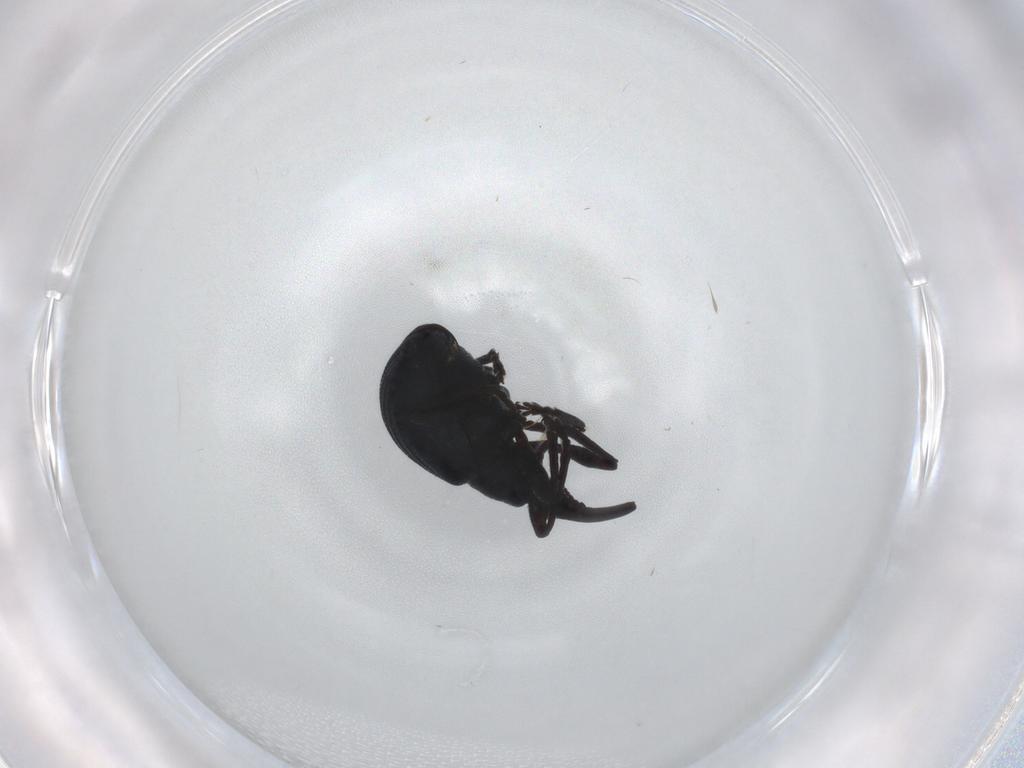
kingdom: Animalia
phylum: Arthropoda
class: Insecta
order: Coleoptera
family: Brentidae
